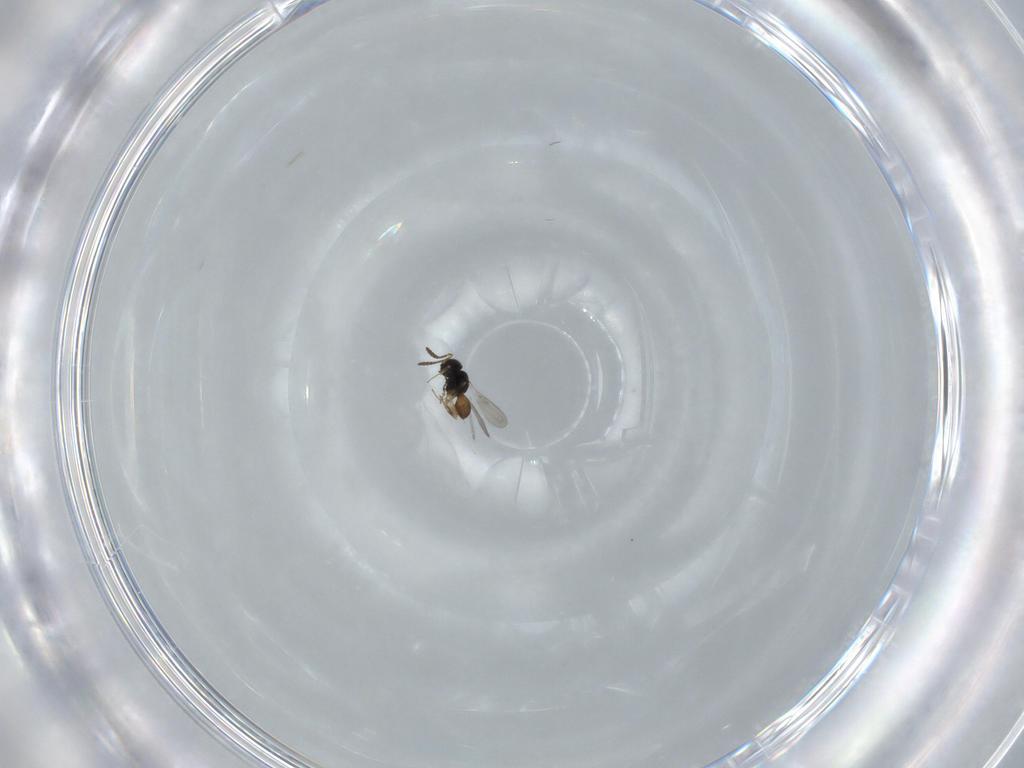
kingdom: Animalia
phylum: Arthropoda
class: Insecta
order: Hymenoptera
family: Scelionidae
